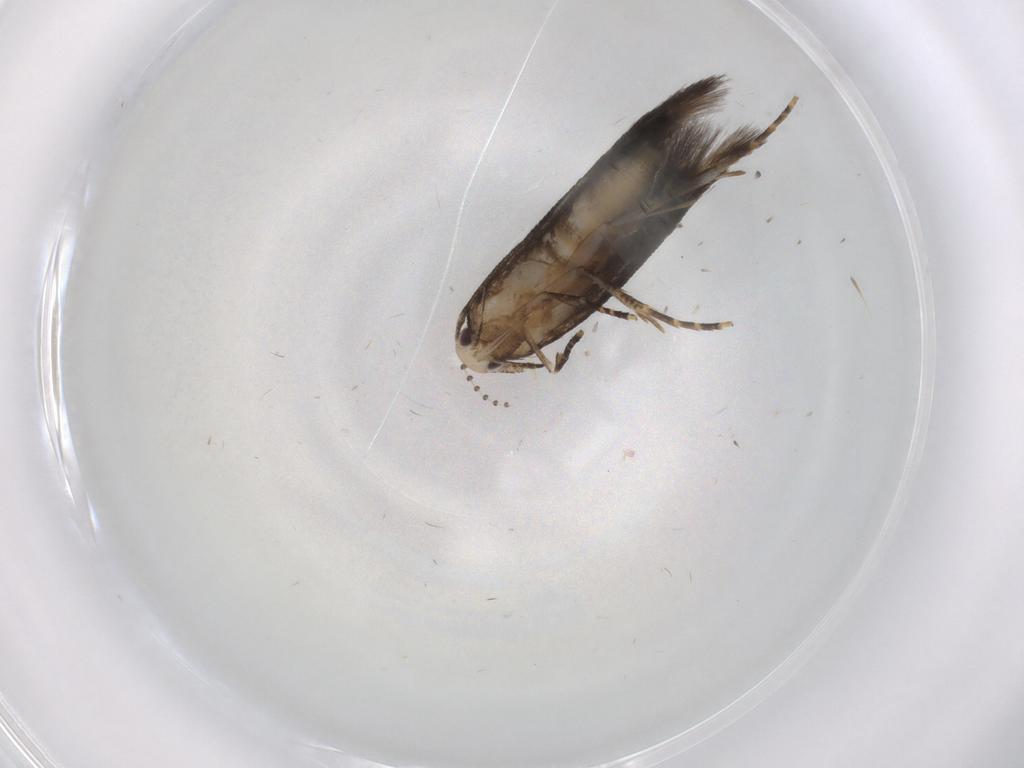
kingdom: Animalia
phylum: Arthropoda
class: Insecta
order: Lepidoptera
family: Cosmopterigidae
